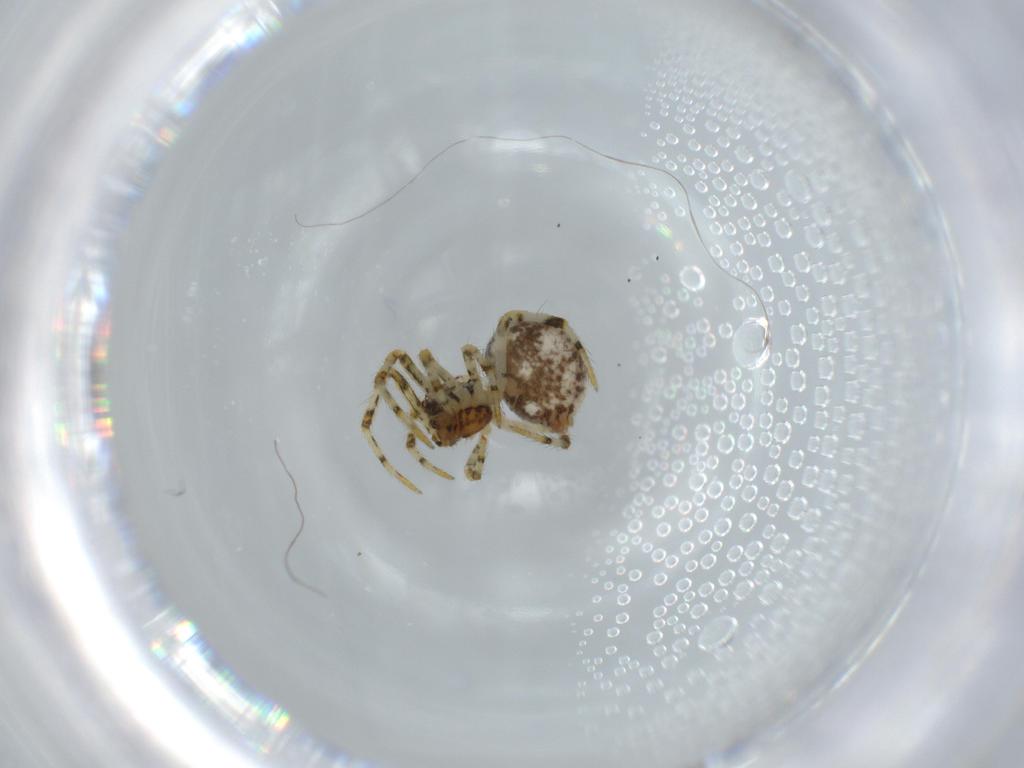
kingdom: Animalia
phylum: Arthropoda
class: Arachnida
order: Araneae
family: Theridiidae
